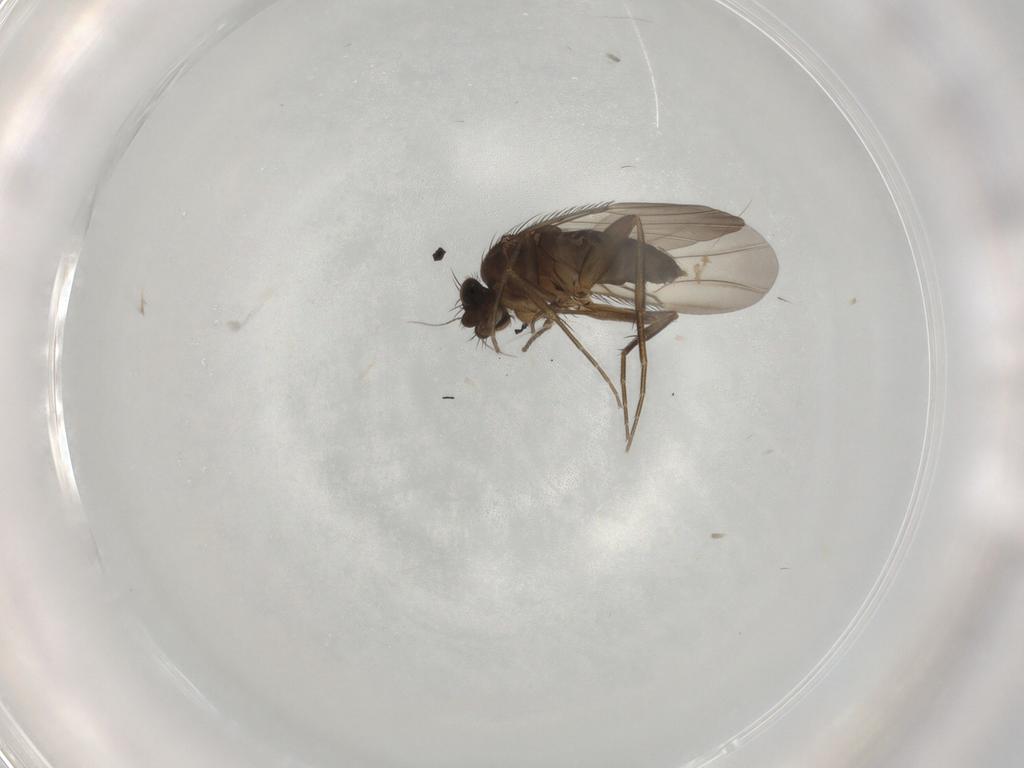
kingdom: Animalia
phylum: Arthropoda
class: Insecta
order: Diptera
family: Phoridae
